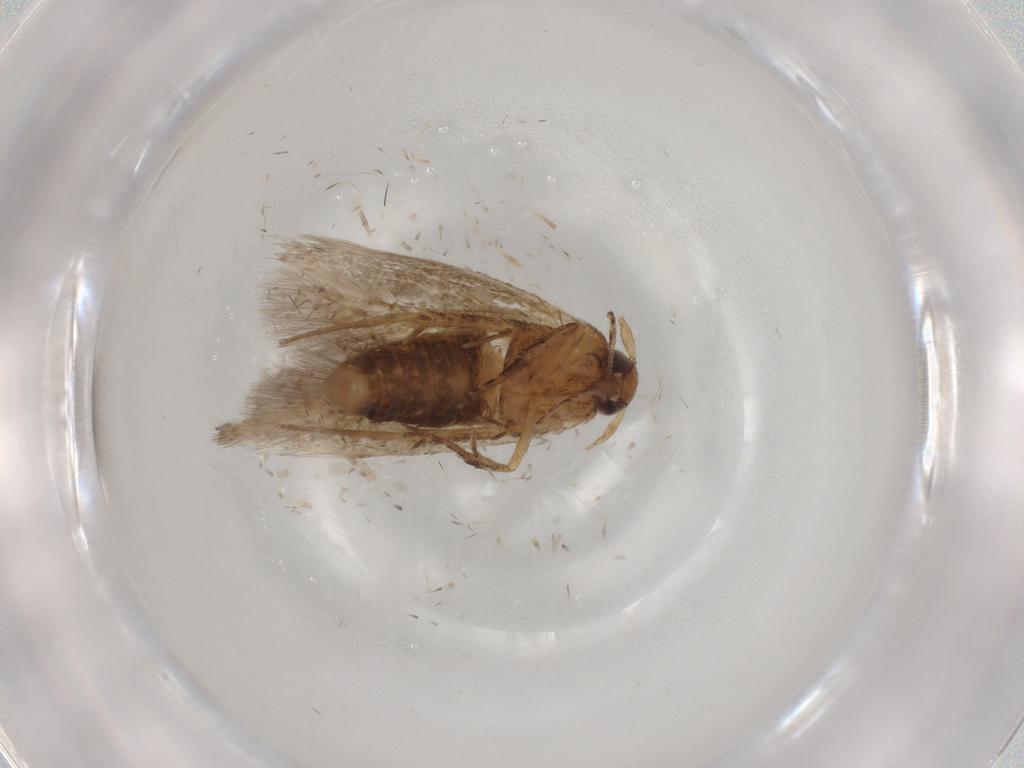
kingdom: Animalia
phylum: Arthropoda
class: Insecta
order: Lepidoptera
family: Cosmopterigidae
